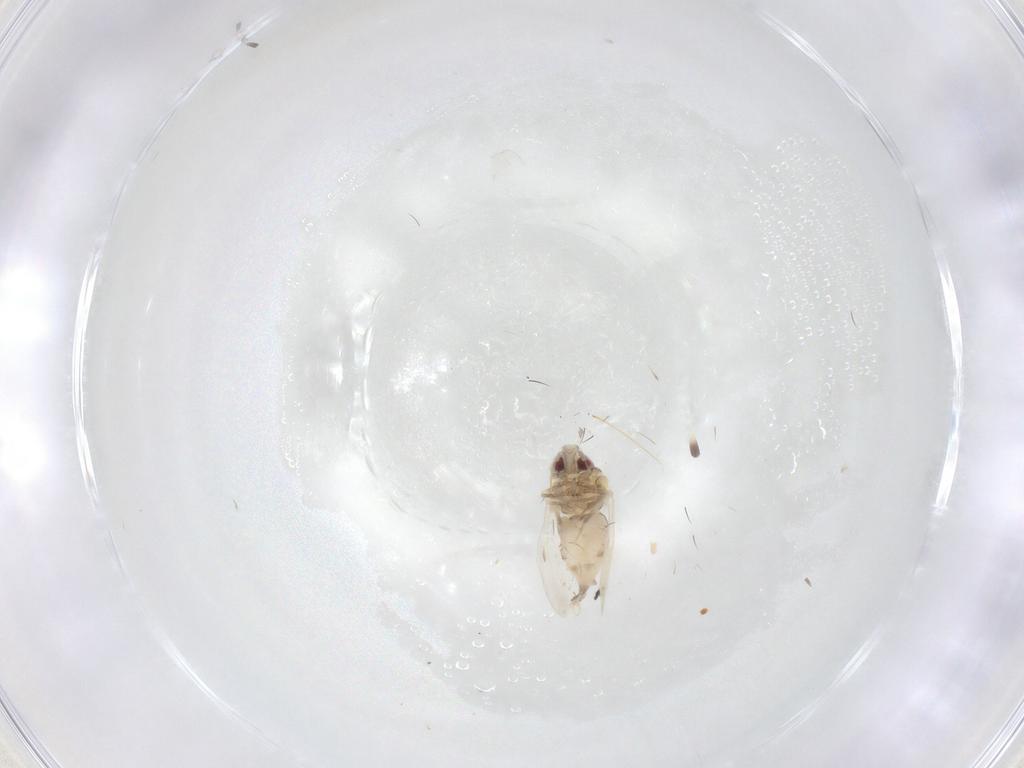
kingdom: Animalia
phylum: Arthropoda
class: Insecta
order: Hemiptera
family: Aleyrodidae
